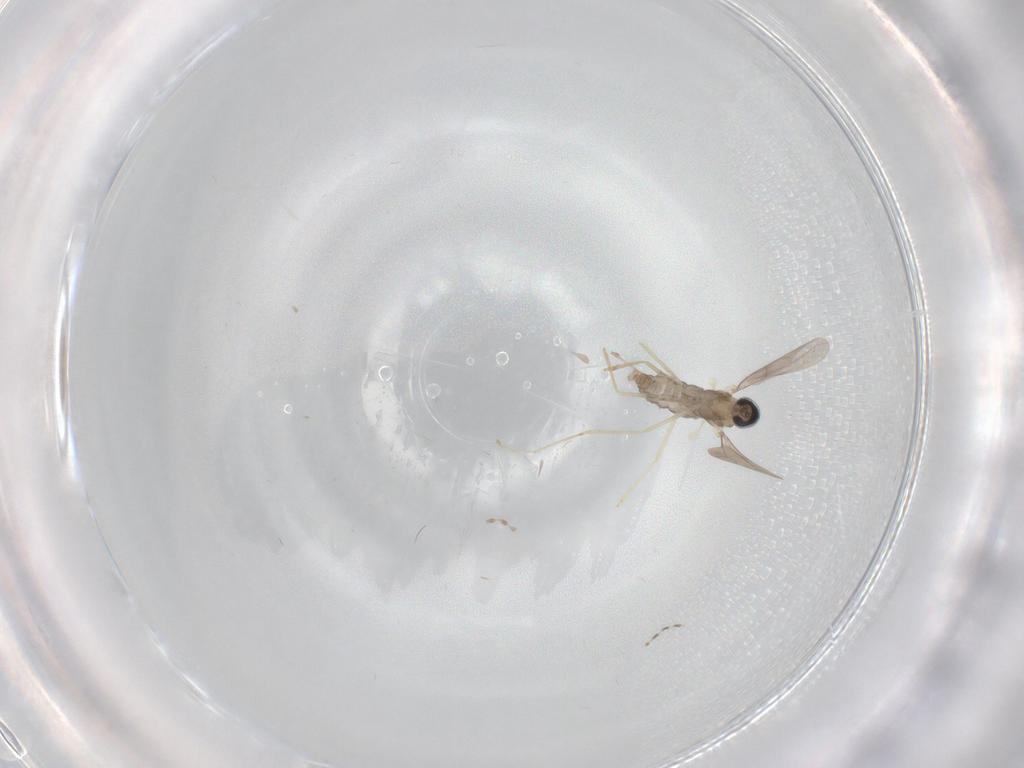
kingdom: Animalia
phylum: Arthropoda
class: Insecta
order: Diptera
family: Cecidomyiidae
